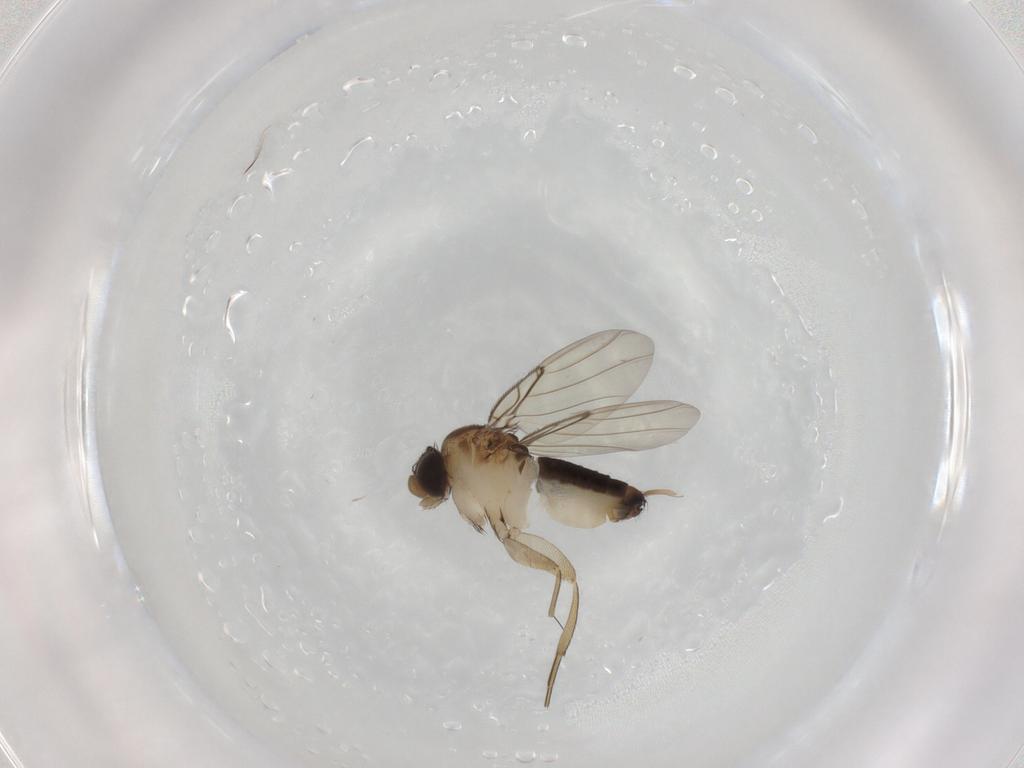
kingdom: Animalia
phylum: Arthropoda
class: Insecta
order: Diptera
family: Phoridae
